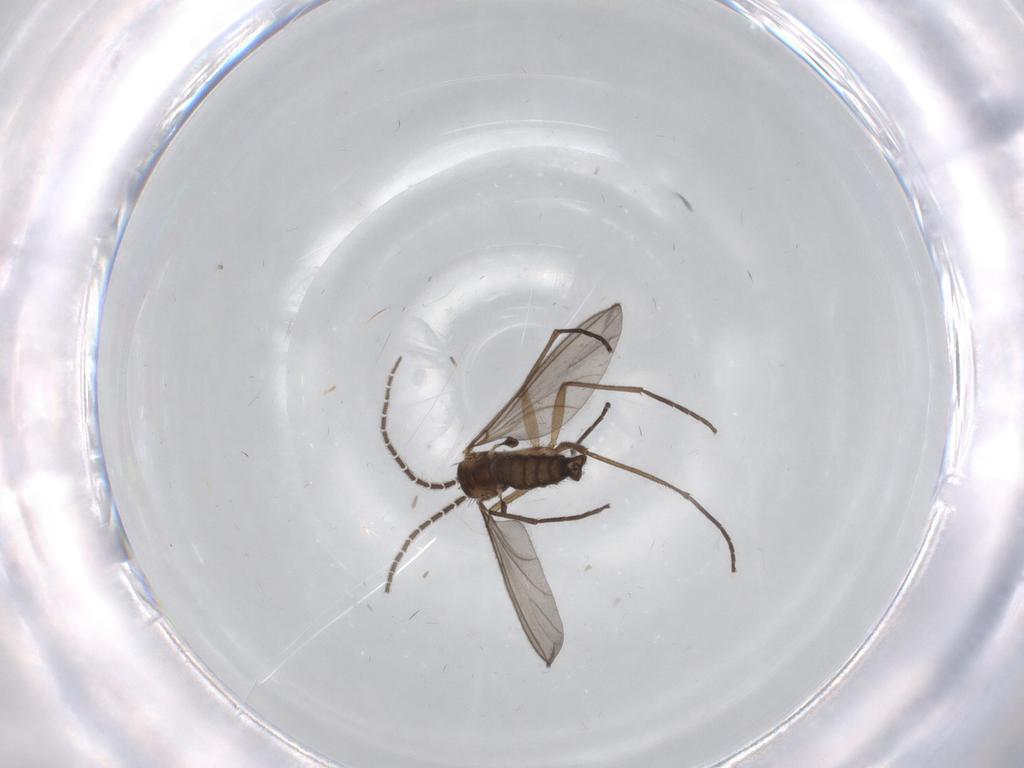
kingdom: Animalia
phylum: Arthropoda
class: Insecta
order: Diptera
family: Sciaridae
